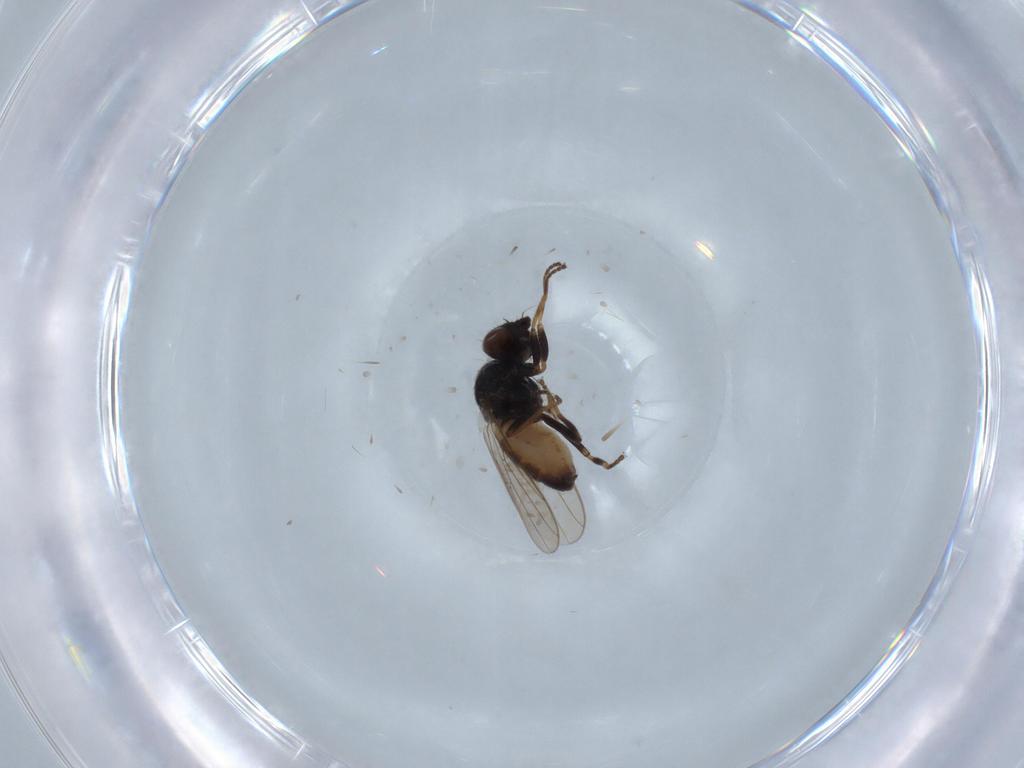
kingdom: Animalia
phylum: Arthropoda
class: Insecta
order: Diptera
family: Chloropidae
